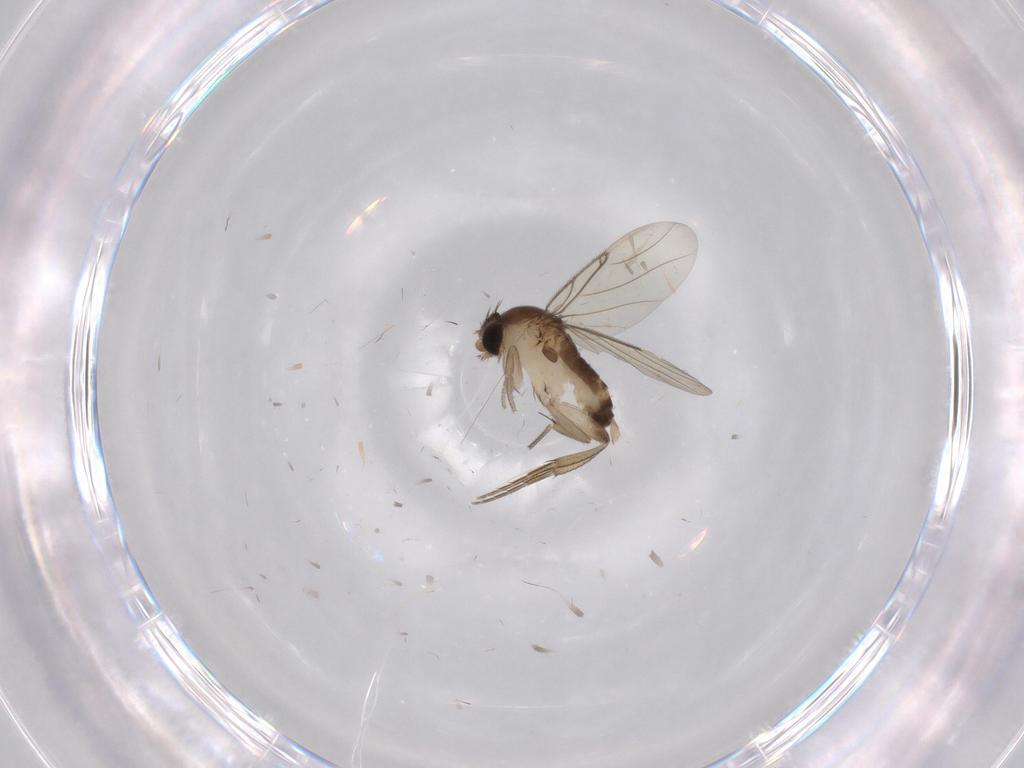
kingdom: Animalia
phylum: Arthropoda
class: Insecta
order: Diptera
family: Phoridae
